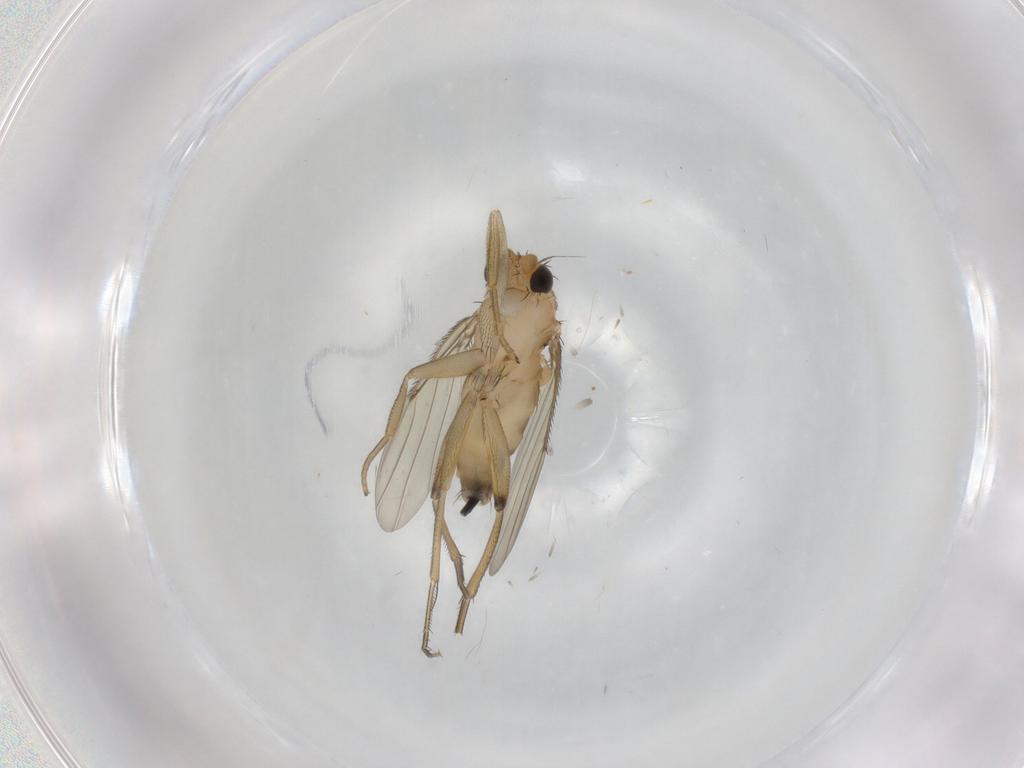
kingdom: Animalia
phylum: Arthropoda
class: Insecta
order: Diptera
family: Phoridae
